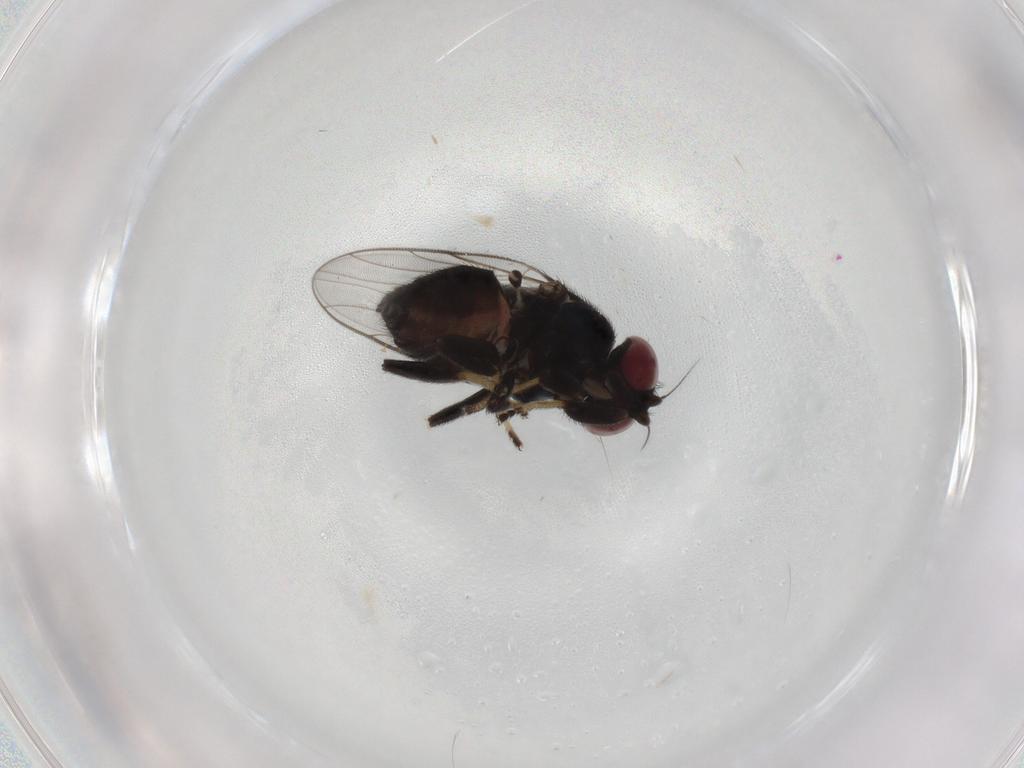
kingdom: Animalia
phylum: Arthropoda
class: Insecta
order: Diptera
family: Chloropidae
